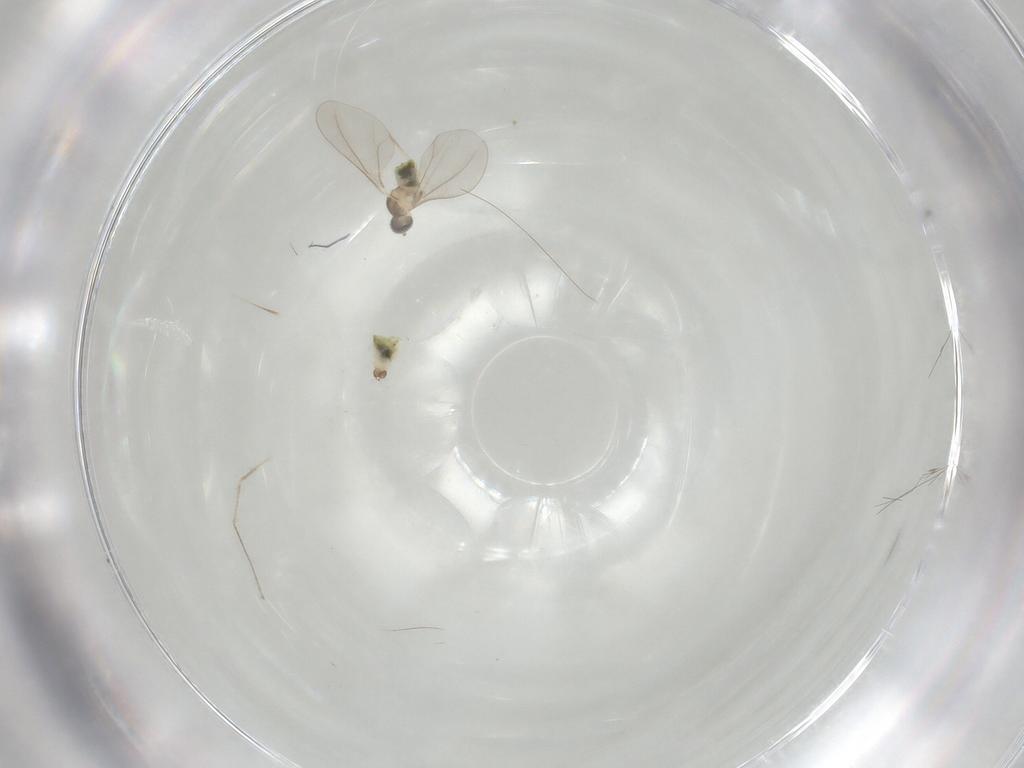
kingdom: Animalia
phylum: Arthropoda
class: Insecta
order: Diptera
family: Cecidomyiidae
